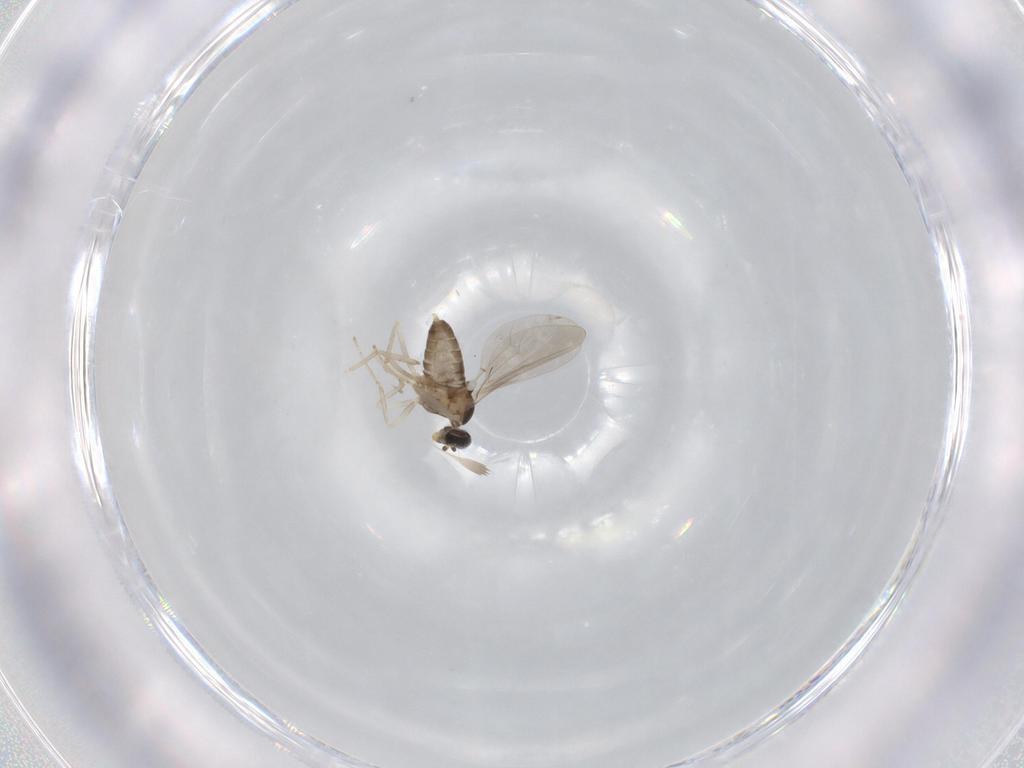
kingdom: Animalia
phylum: Arthropoda
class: Insecta
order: Diptera
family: Cecidomyiidae
